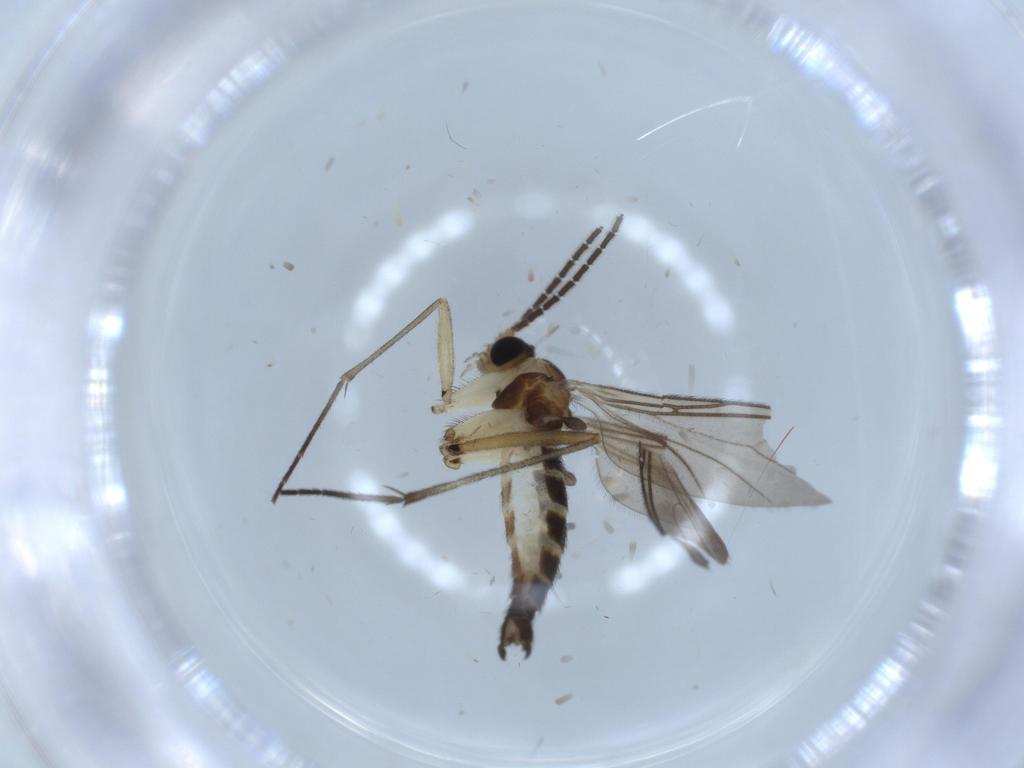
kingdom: Animalia
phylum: Arthropoda
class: Insecta
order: Diptera
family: Sciaridae
